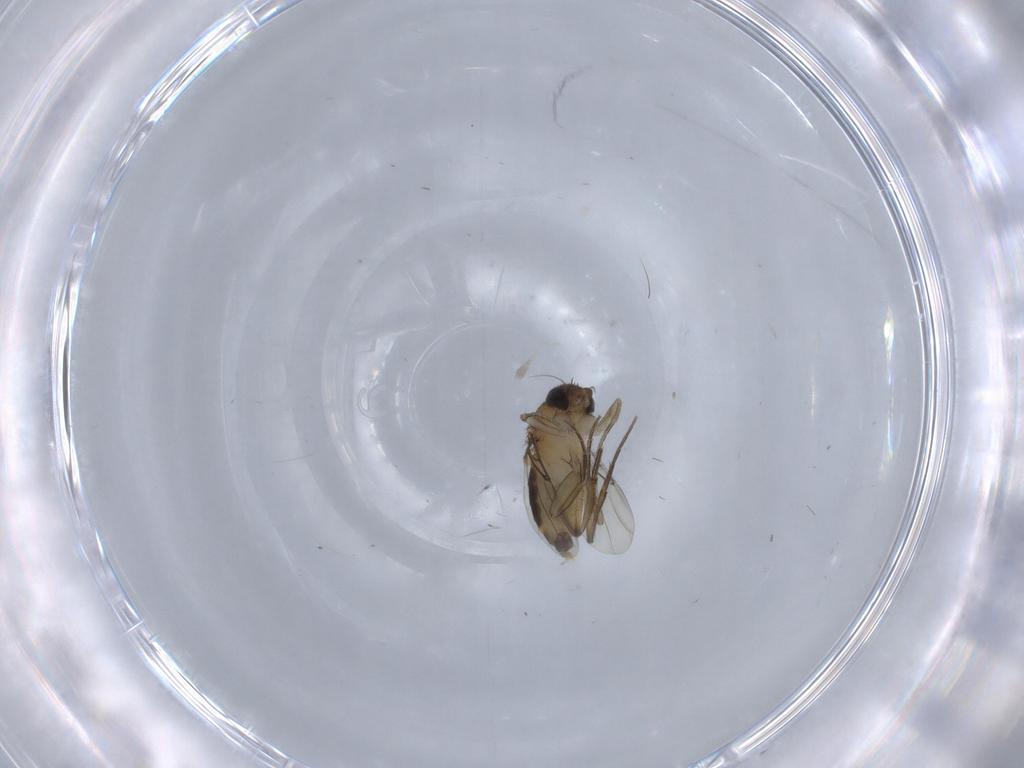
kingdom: Animalia
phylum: Arthropoda
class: Insecta
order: Diptera
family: Phoridae
